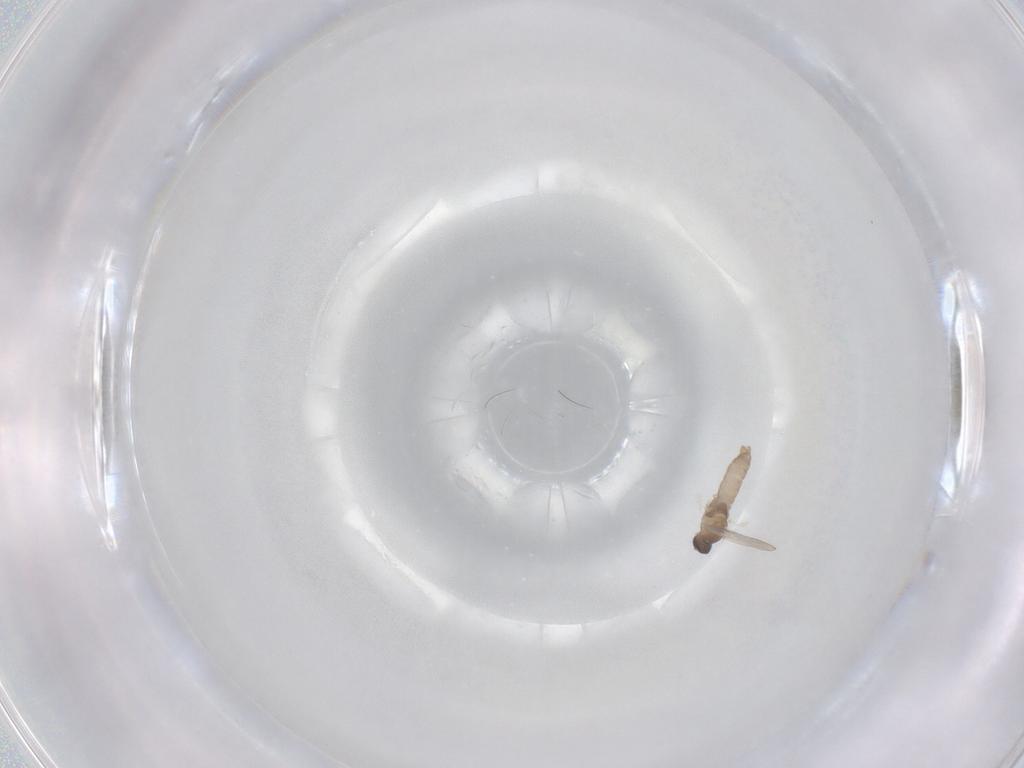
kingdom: Animalia
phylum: Arthropoda
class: Insecta
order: Diptera
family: Cecidomyiidae
